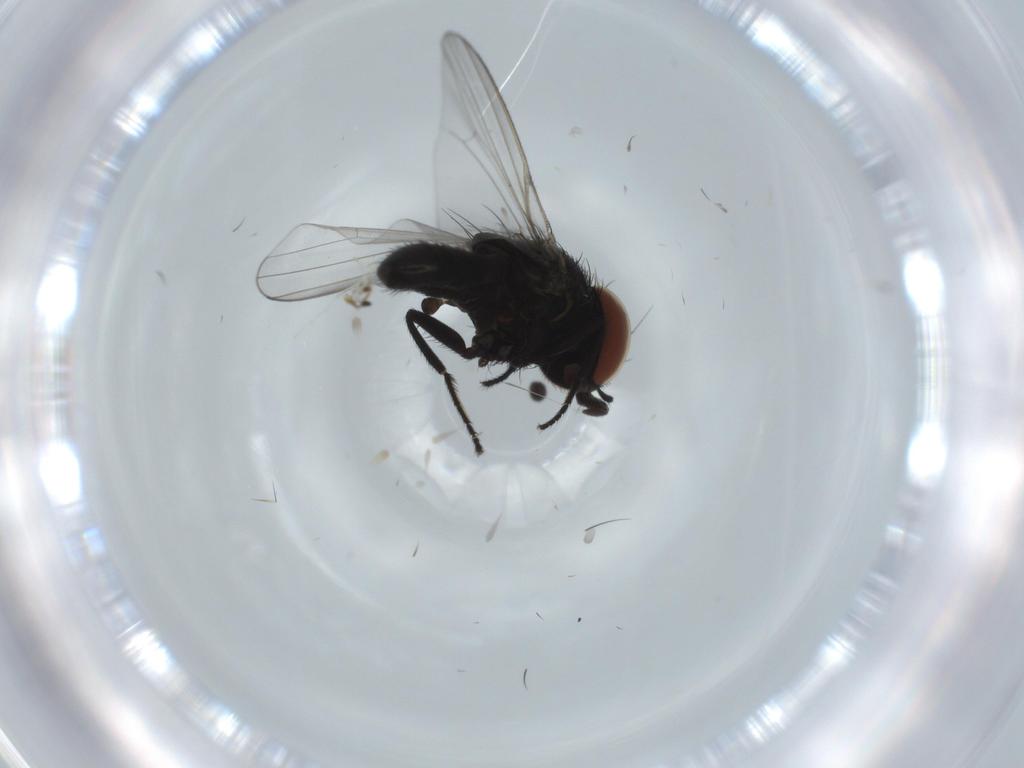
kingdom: Animalia
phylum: Arthropoda
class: Insecta
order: Diptera
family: Milichiidae
